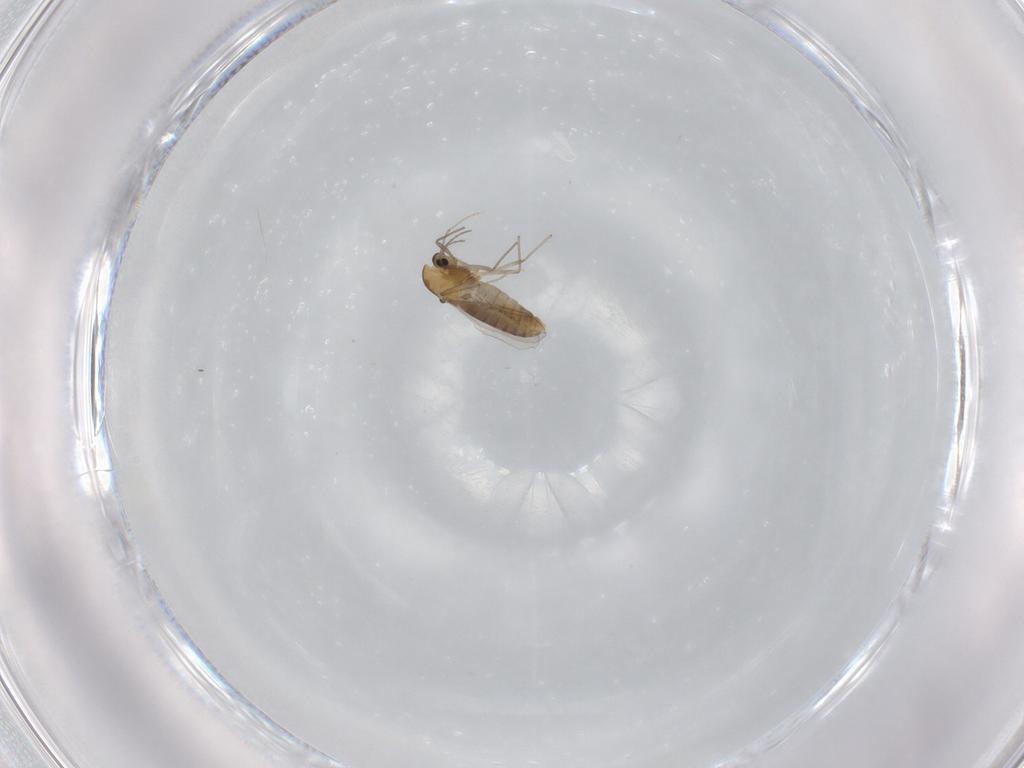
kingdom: Animalia
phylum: Arthropoda
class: Insecta
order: Diptera
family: Chironomidae
